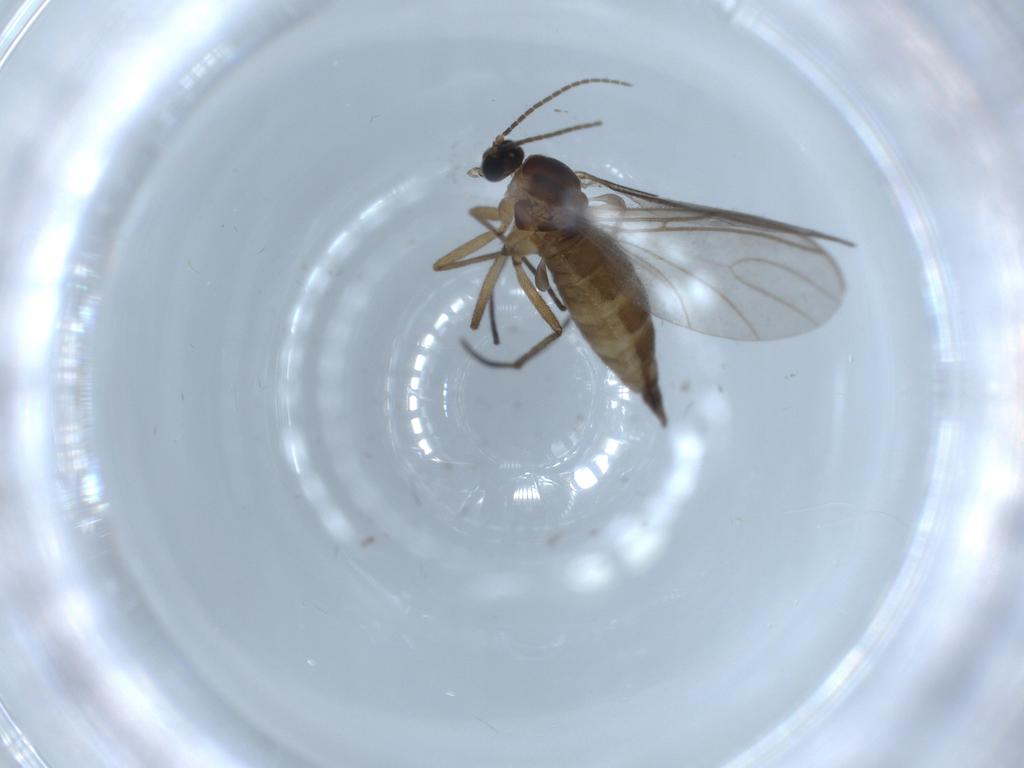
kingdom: Animalia
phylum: Arthropoda
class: Insecta
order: Diptera
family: Sciaridae
